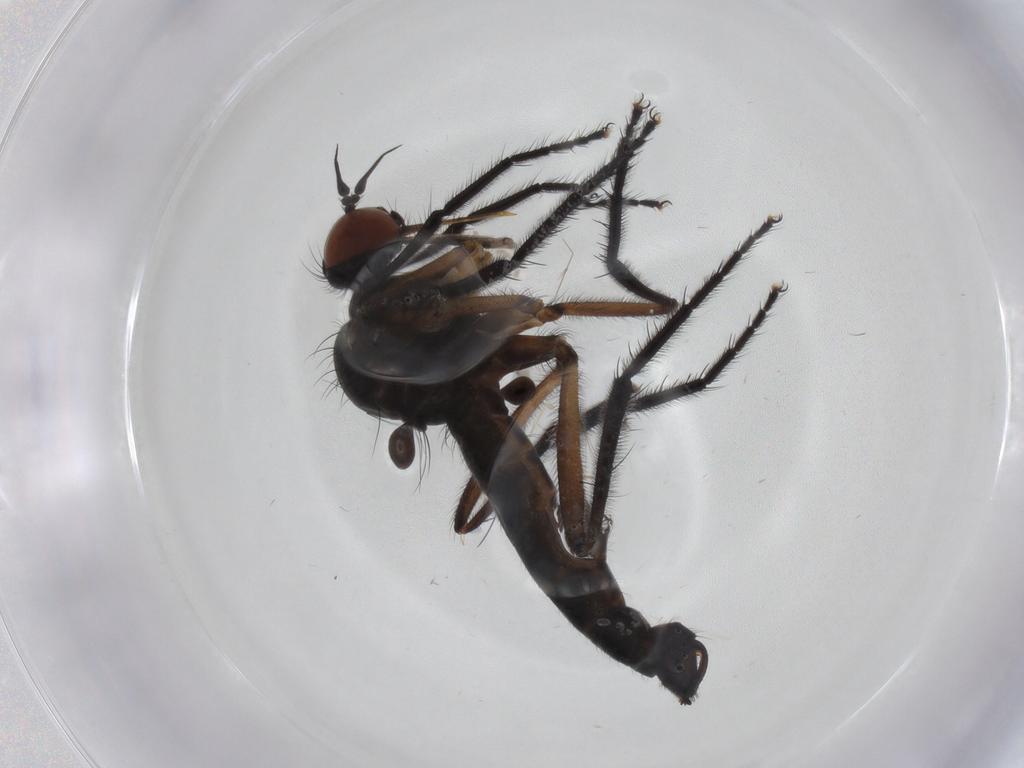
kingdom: Animalia
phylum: Arthropoda
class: Insecta
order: Diptera
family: Empididae
